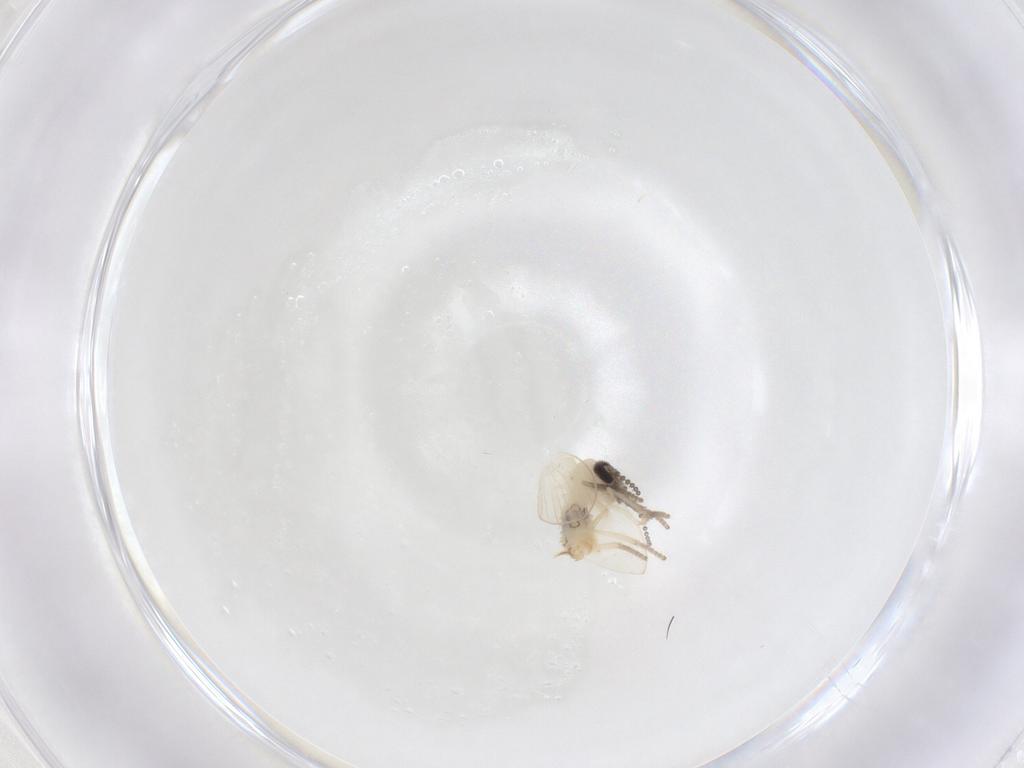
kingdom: Animalia
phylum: Arthropoda
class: Insecta
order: Diptera
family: Psychodidae
